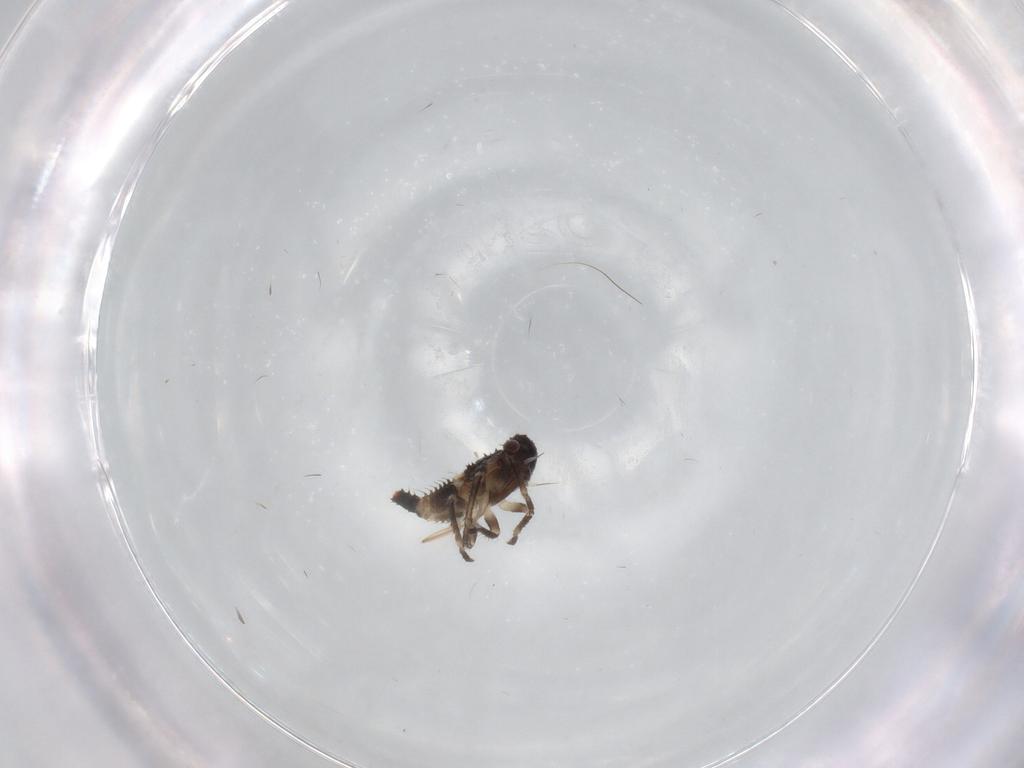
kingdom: Animalia
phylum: Arthropoda
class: Insecta
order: Hemiptera
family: Membracidae
